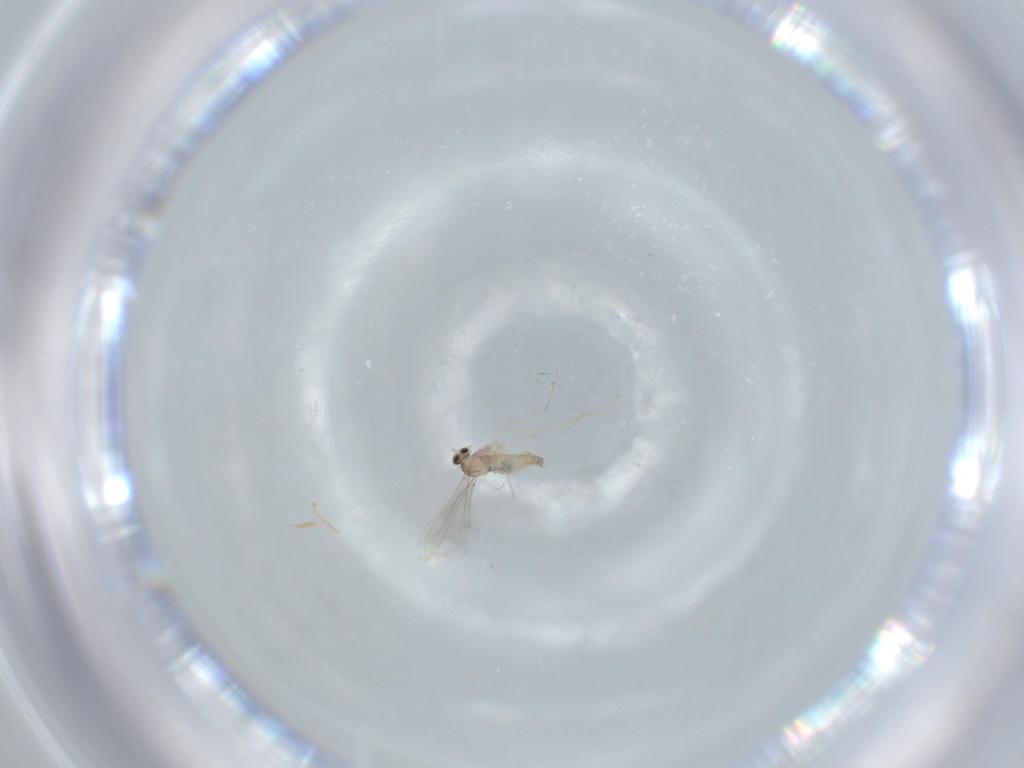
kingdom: Animalia
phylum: Arthropoda
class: Insecta
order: Diptera
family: Cecidomyiidae
